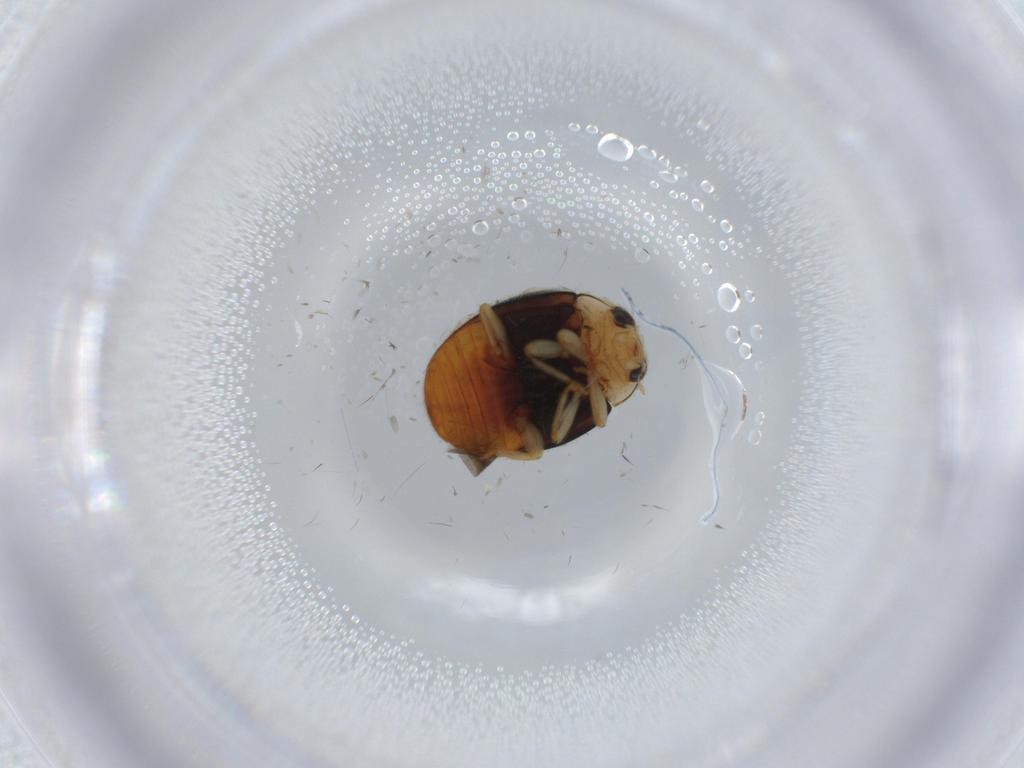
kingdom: Animalia
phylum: Arthropoda
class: Insecta
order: Coleoptera
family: Coccinellidae
